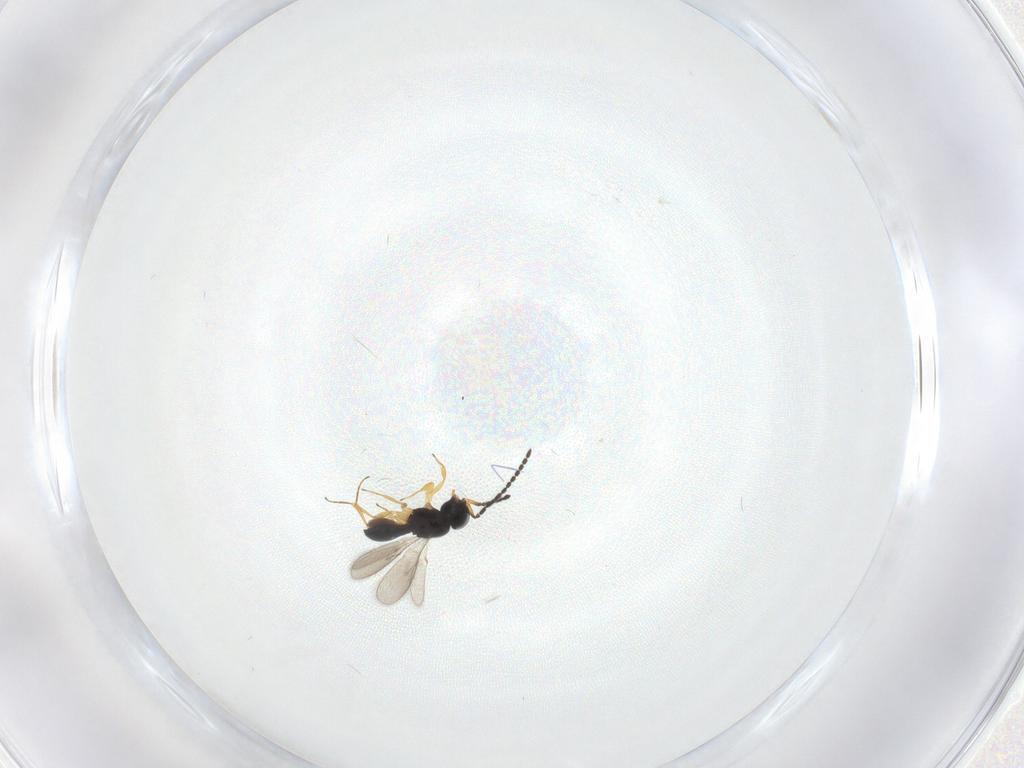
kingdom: Animalia
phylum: Arthropoda
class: Insecta
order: Hymenoptera
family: Scelionidae
